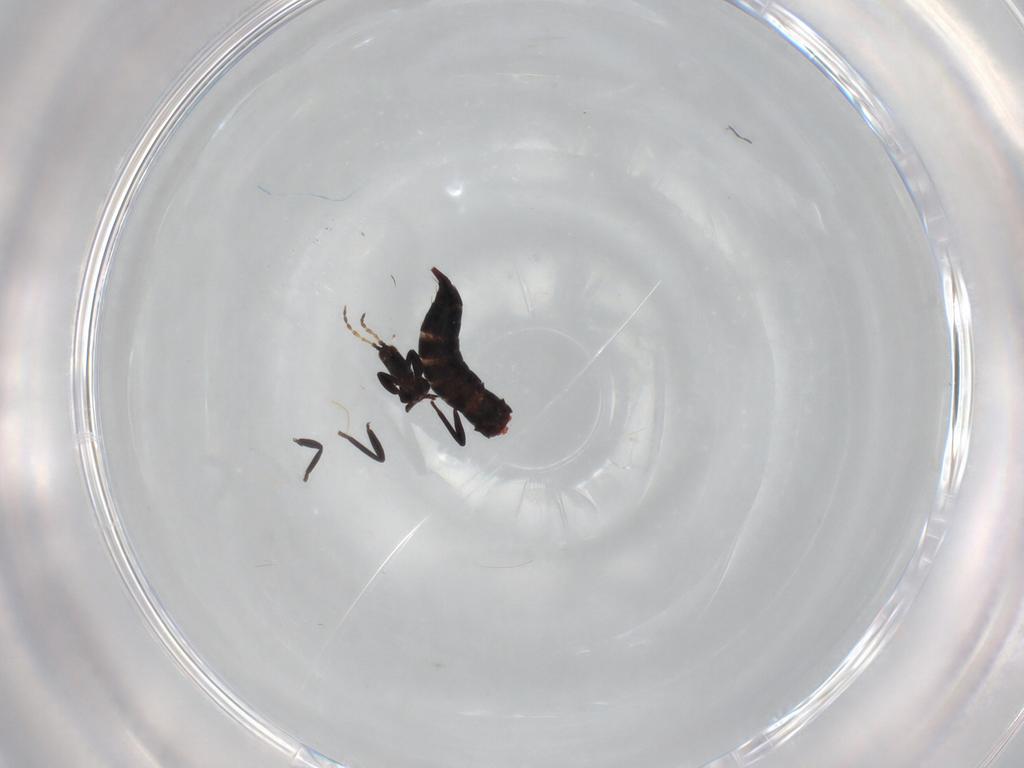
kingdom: Animalia
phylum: Arthropoda
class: Insecta
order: Thysanoptera
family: Phlaeothripidae
